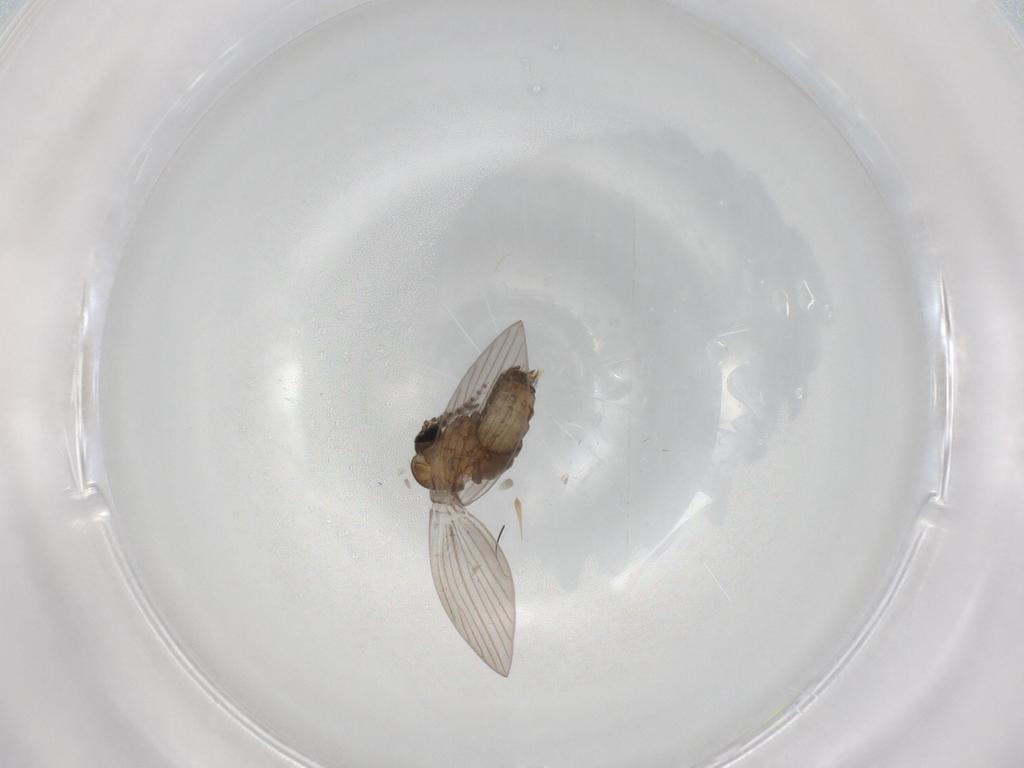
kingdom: Animalia
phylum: Arthropoda
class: Insecta
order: Diptera
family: Psychodidae
